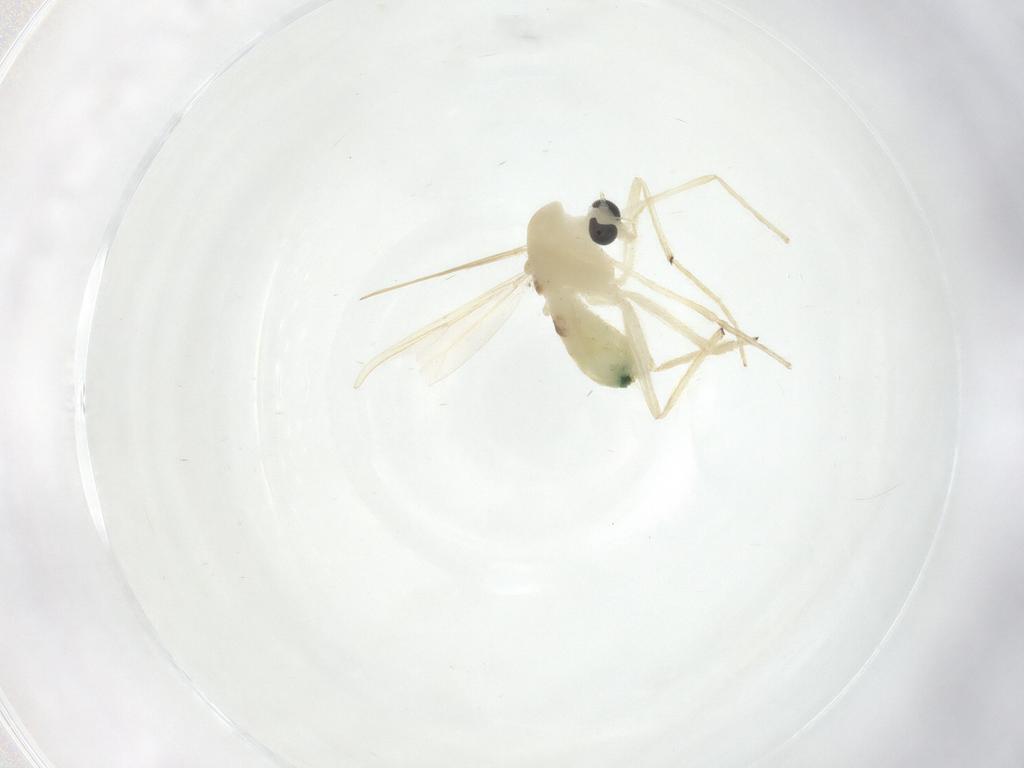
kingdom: Animalia
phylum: Arthropoda
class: Insecta
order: Diptera
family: Chironomidae
